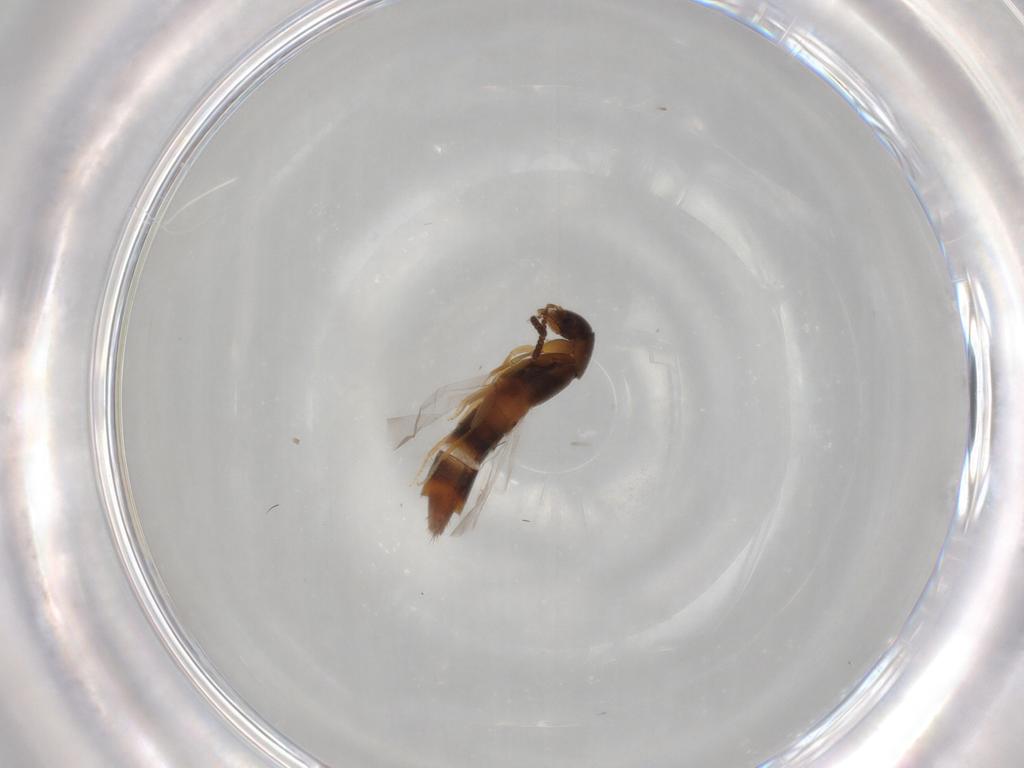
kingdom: Animalia
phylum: Arthropoda
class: Insecta
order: Coleoptera
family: Staphylinidae
